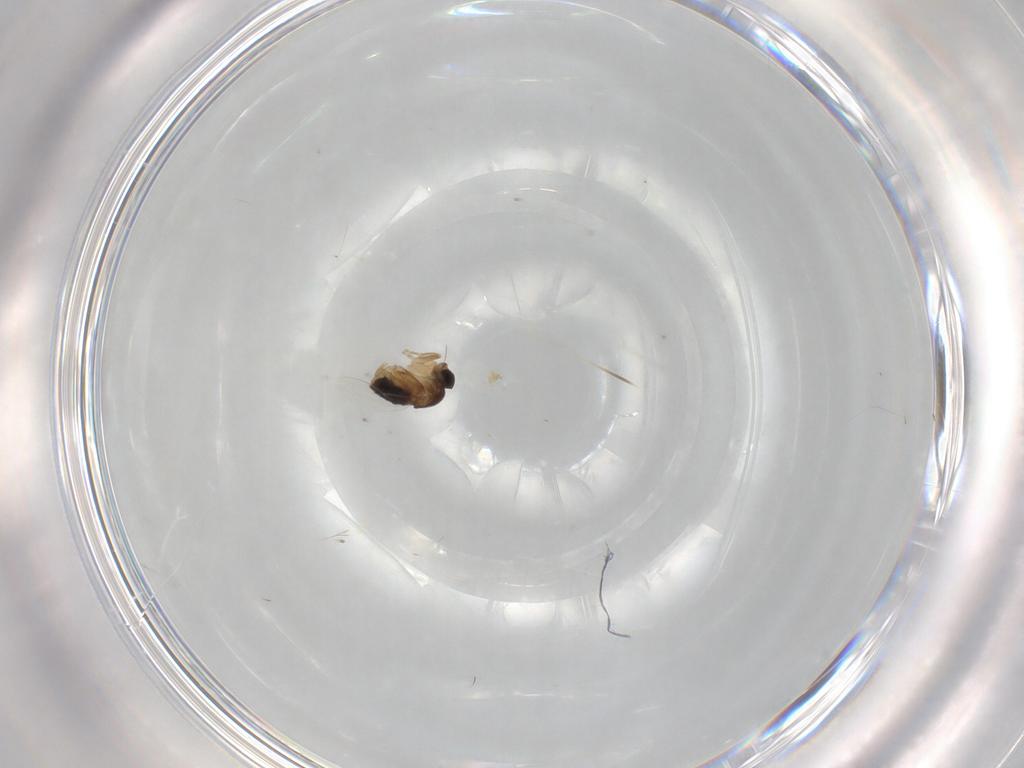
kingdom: Animalia
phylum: Arthropoda
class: Insecta
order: Diptera
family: Phoridae
